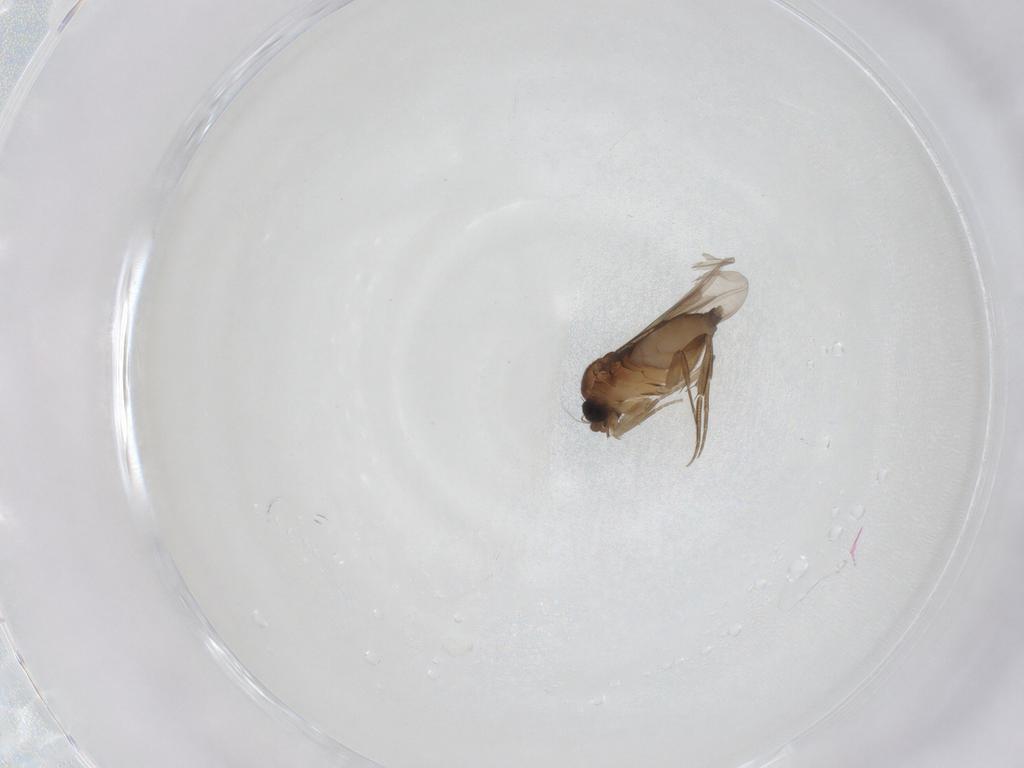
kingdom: Animalia
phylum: Arthropoda
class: Insecta
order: Diptera
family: Phoridae
